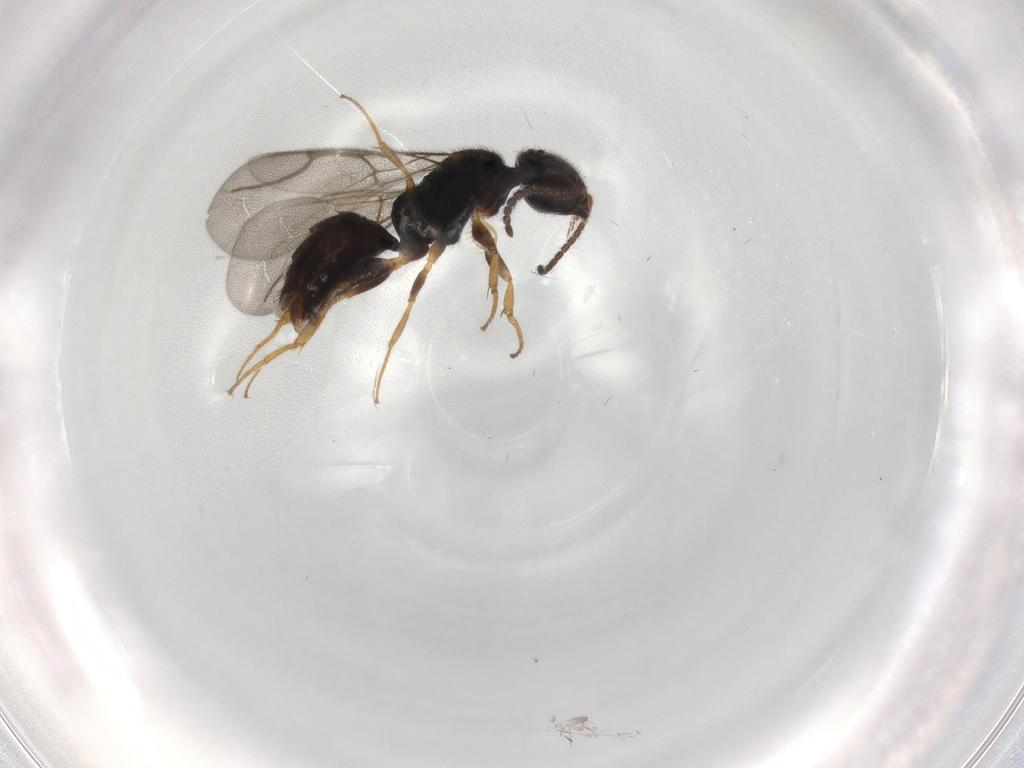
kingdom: Animalia
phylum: Arthropoda
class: Insecta
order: Hymenoptera
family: Bethylidae
